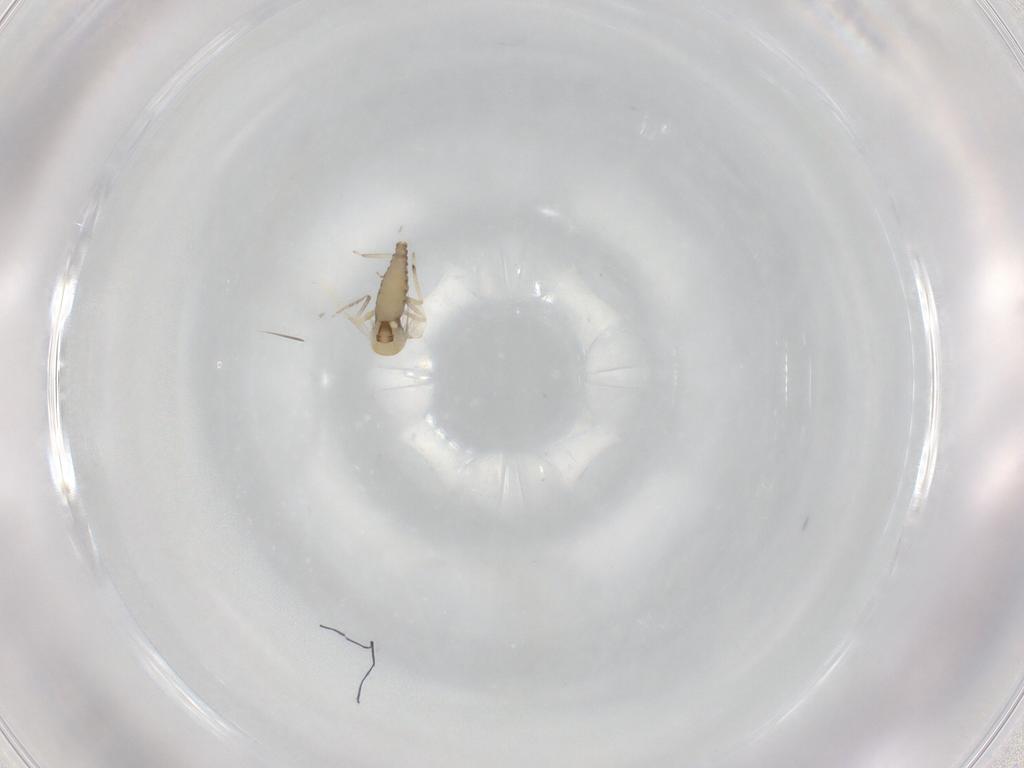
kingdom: Animalia
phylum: Arthropoda
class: Insecta
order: Diptera
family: Ceratopogonidae
